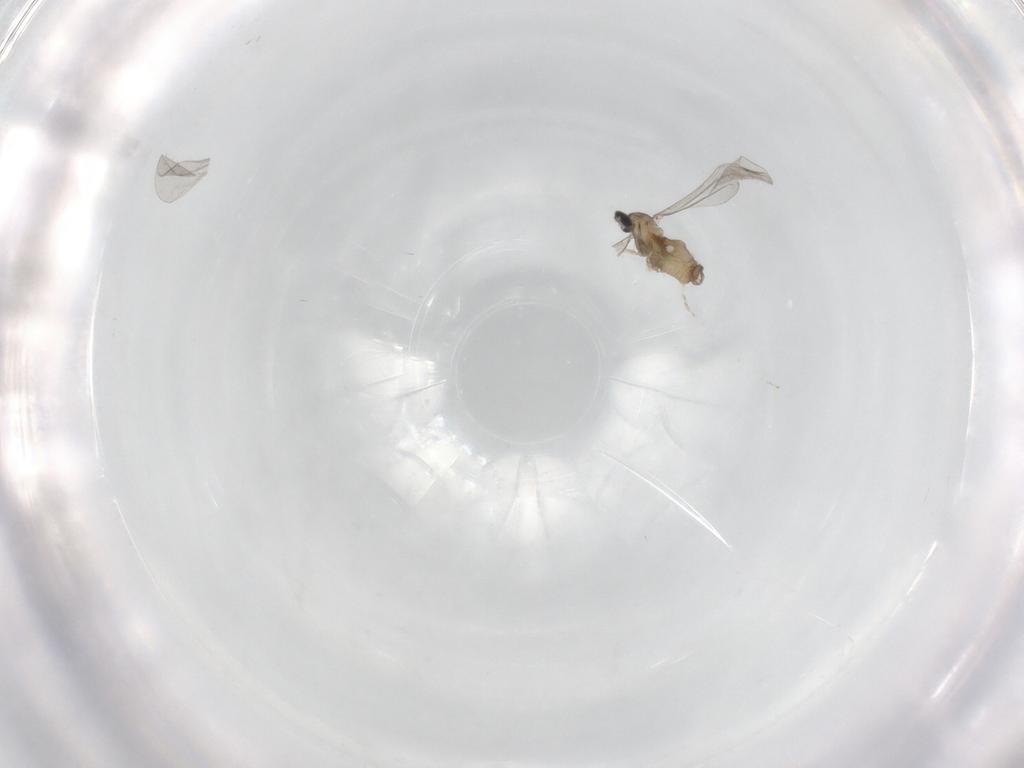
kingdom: Animalia
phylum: Arthropoda
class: Insecta
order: Diptera
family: Cecidomyiidae
